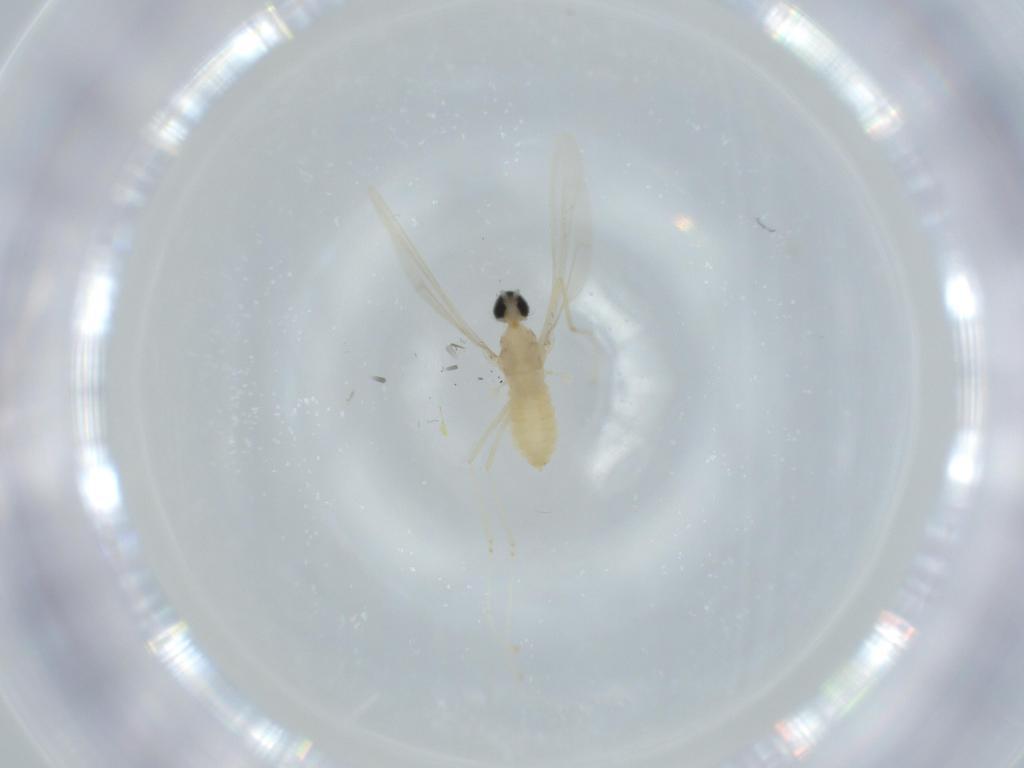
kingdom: Animalia
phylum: Arthropoda
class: Insecta
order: Diptera
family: Cecidomyiidae
